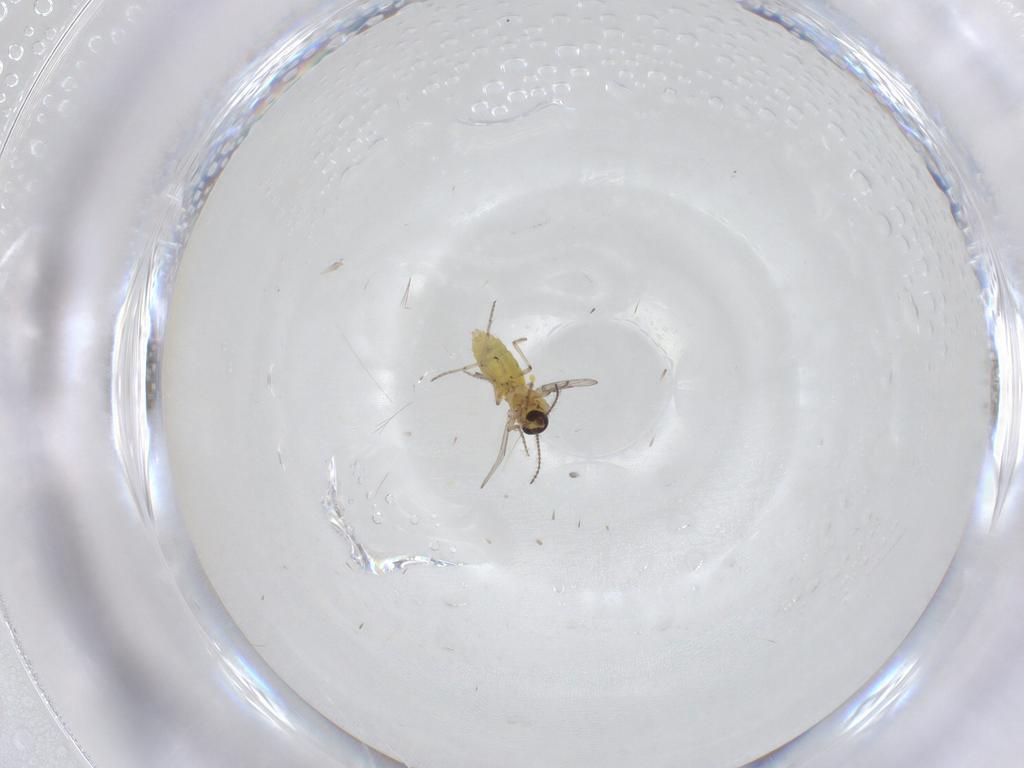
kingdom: Animalia
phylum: Arthropoda
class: Insecta
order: Diptera
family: Ceratopogonidae
